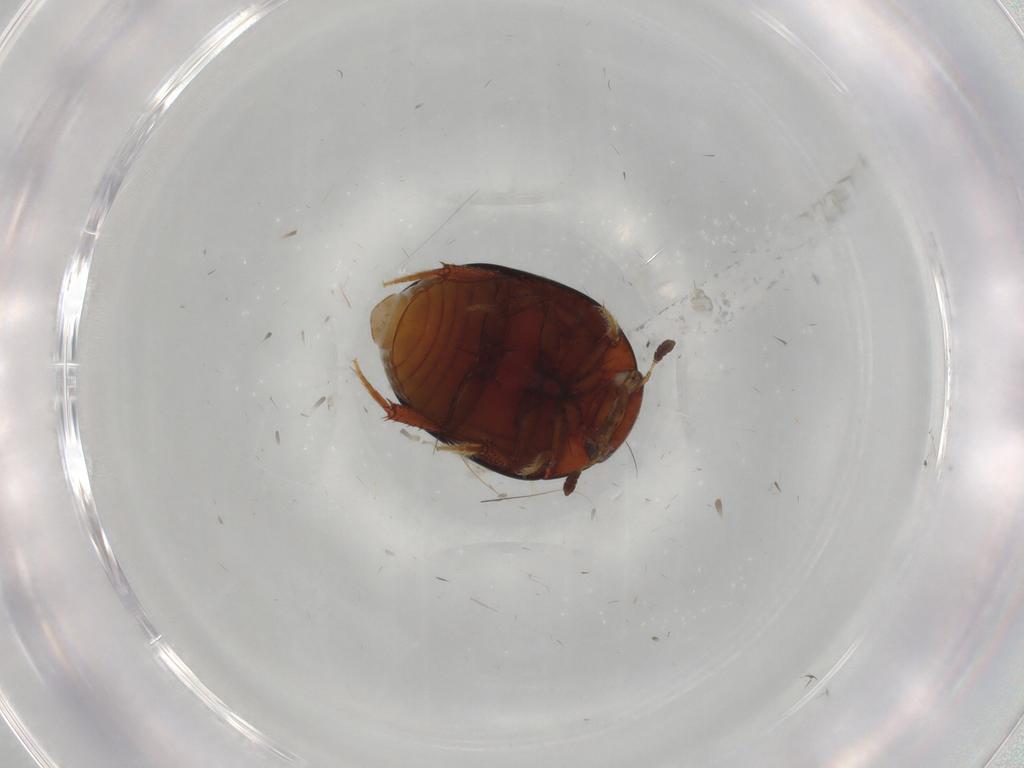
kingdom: Animalia
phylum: Arthropoda
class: Insecta
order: Coleoptera
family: Hydrophilidae
